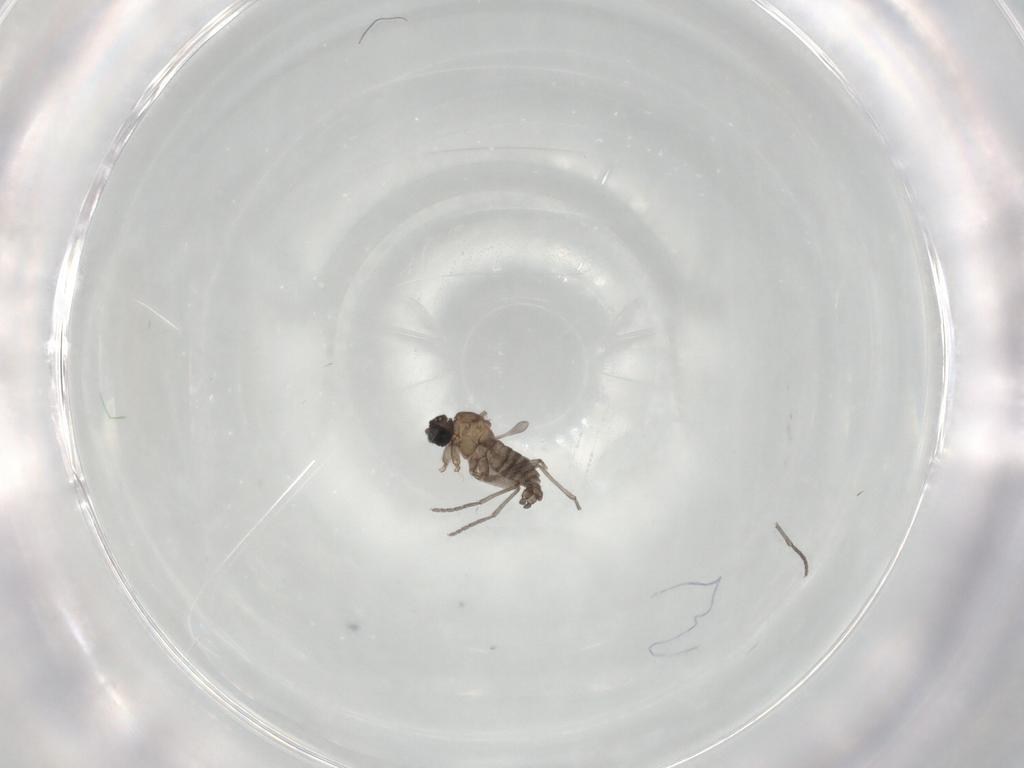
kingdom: Animalia
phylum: Arthropoda
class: Insecta
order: Diptera
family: Sciaridae
